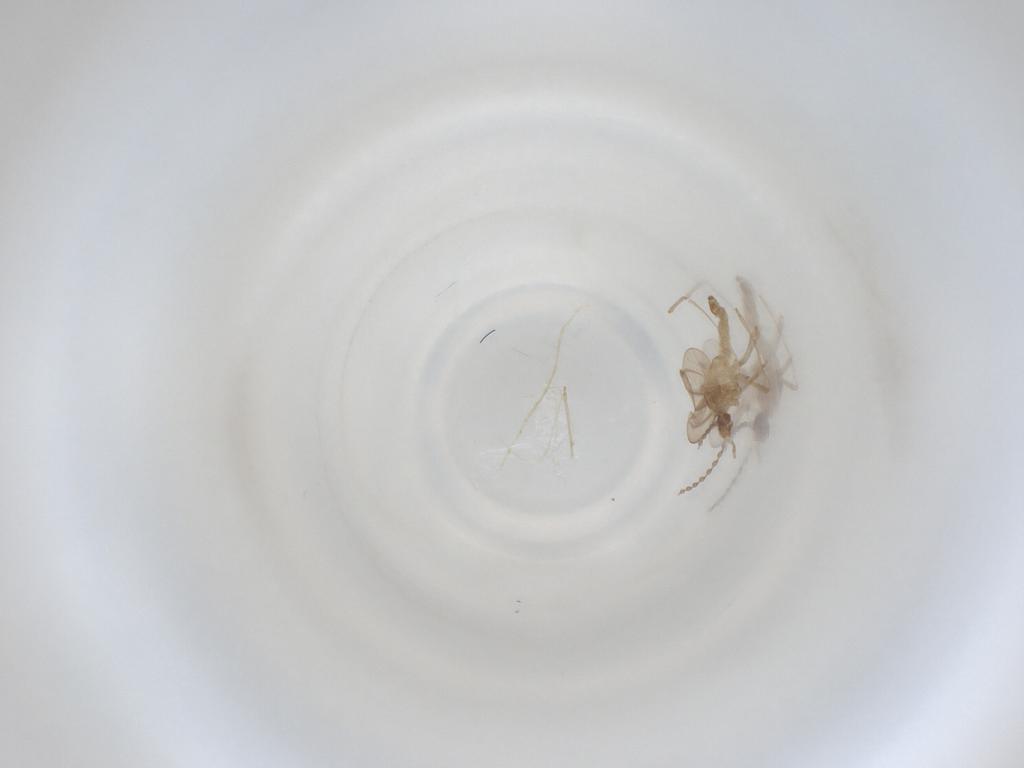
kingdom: Animalia
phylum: Arthropoda
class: Insecta
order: Diptera
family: Cecidomyiidae
